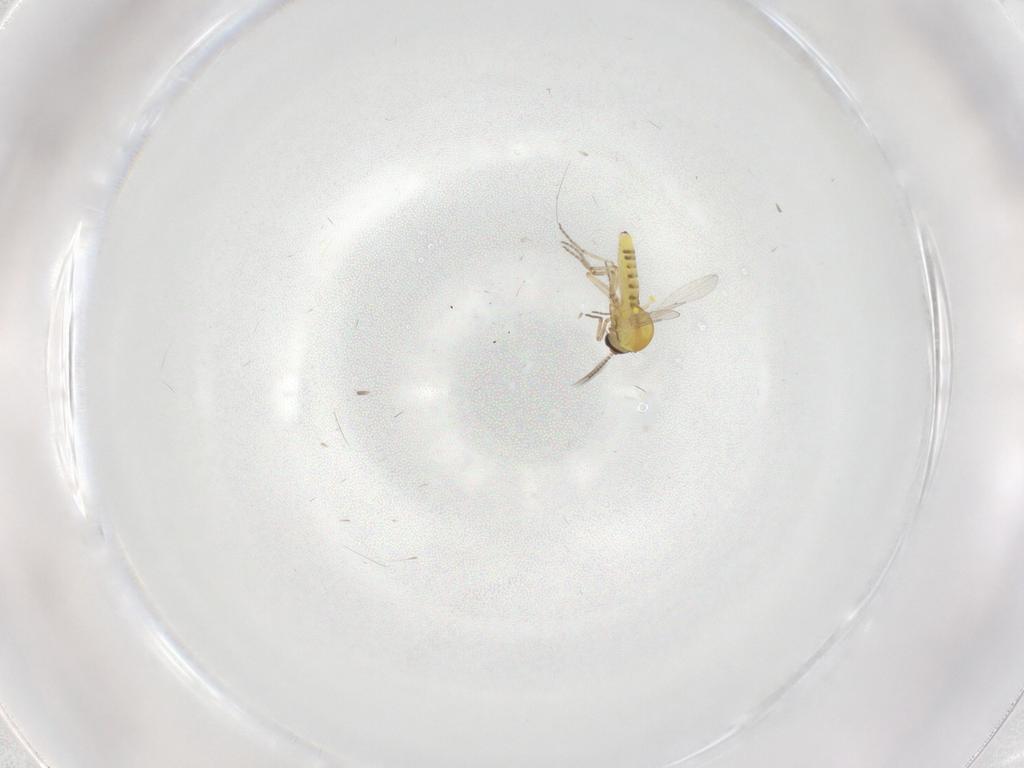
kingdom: Animalia
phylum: Arthropoda
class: Insecta
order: Diptera
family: Ceratopogonidae
